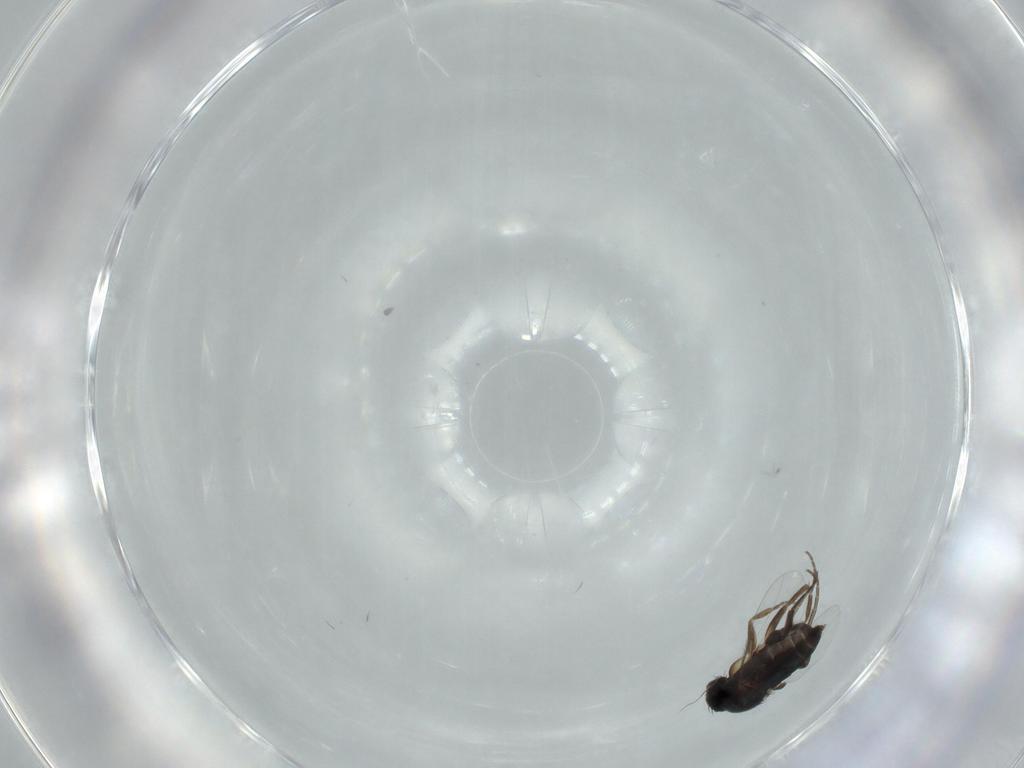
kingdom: Animalia
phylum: Arthropoda
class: Insecta
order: Diptera
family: Phoridae
